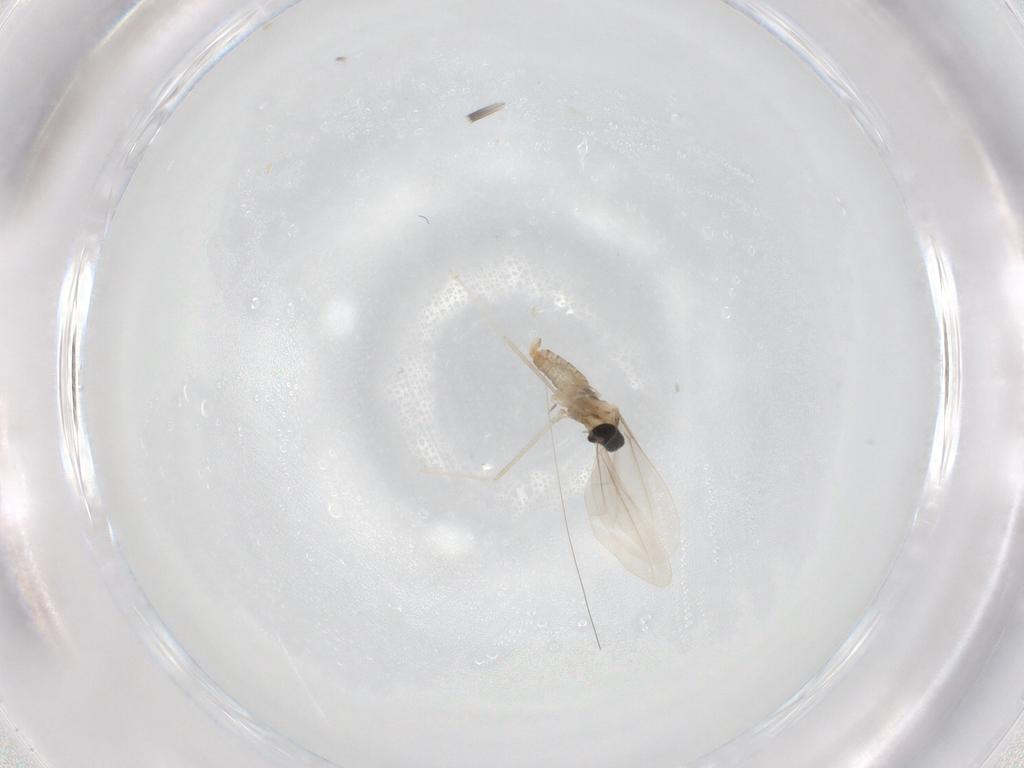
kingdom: Animalia
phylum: Arthropoda
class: Insecta
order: Diptera
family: Cecidomyiidae
